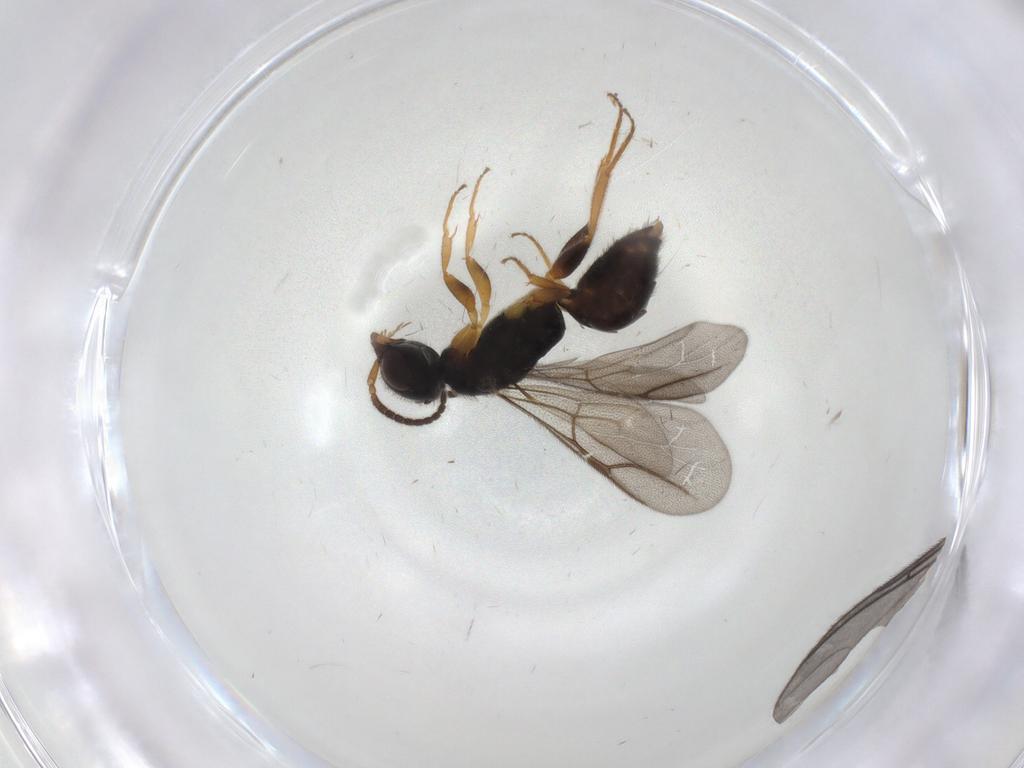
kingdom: Animalia
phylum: Arthropoda
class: Insecta
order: Hymenoptera
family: Bethylidae
